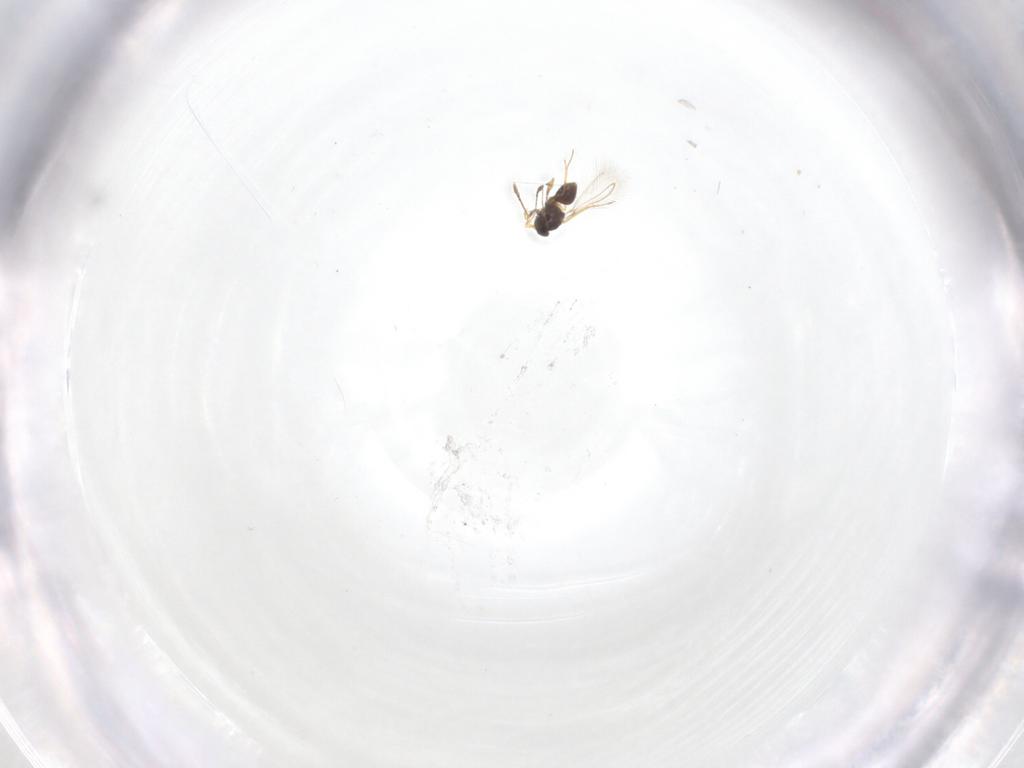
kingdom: Animalia
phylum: Arthropoda
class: Insecta
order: Hymenoptera
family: Mymaridae
